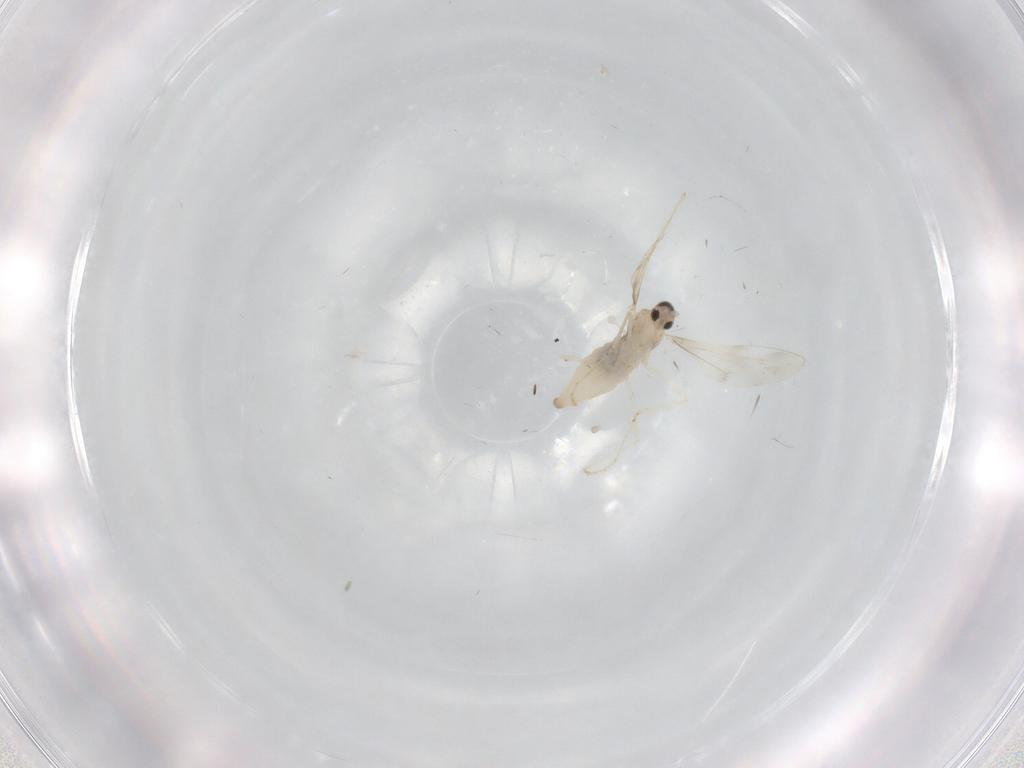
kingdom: Animalia
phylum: Arthropoda
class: Insecta
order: Diptera
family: Cecidomyiidae
